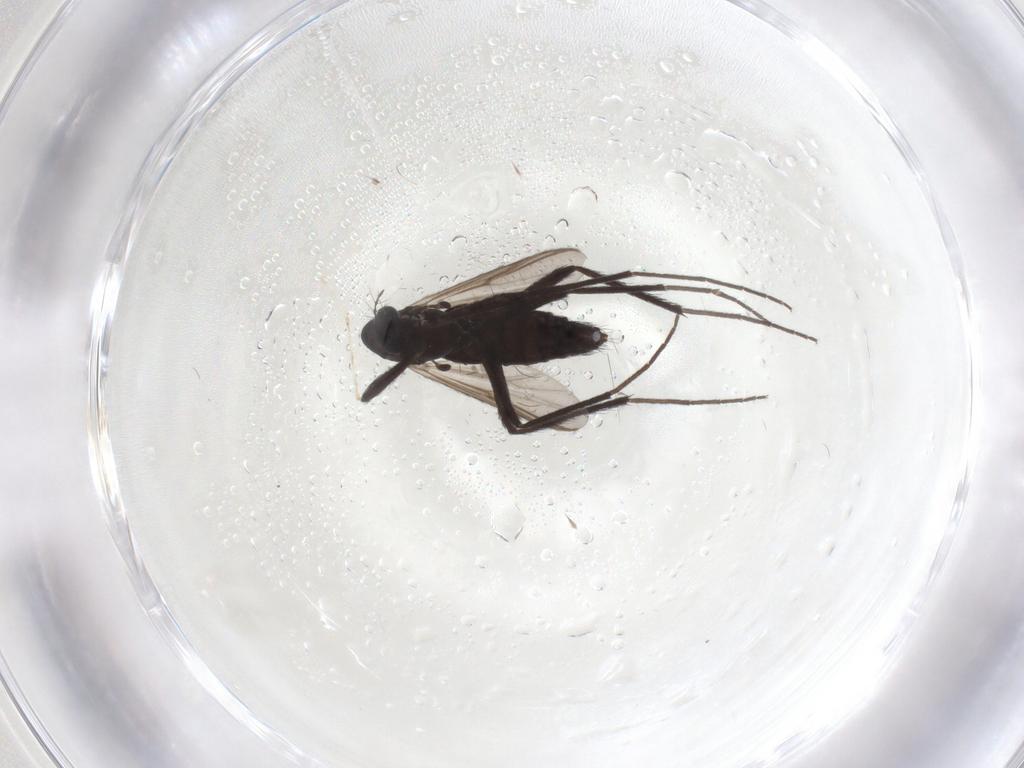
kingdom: Animalia
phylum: Arthropoda
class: Insecta
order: Diptera
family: Chironomidae
